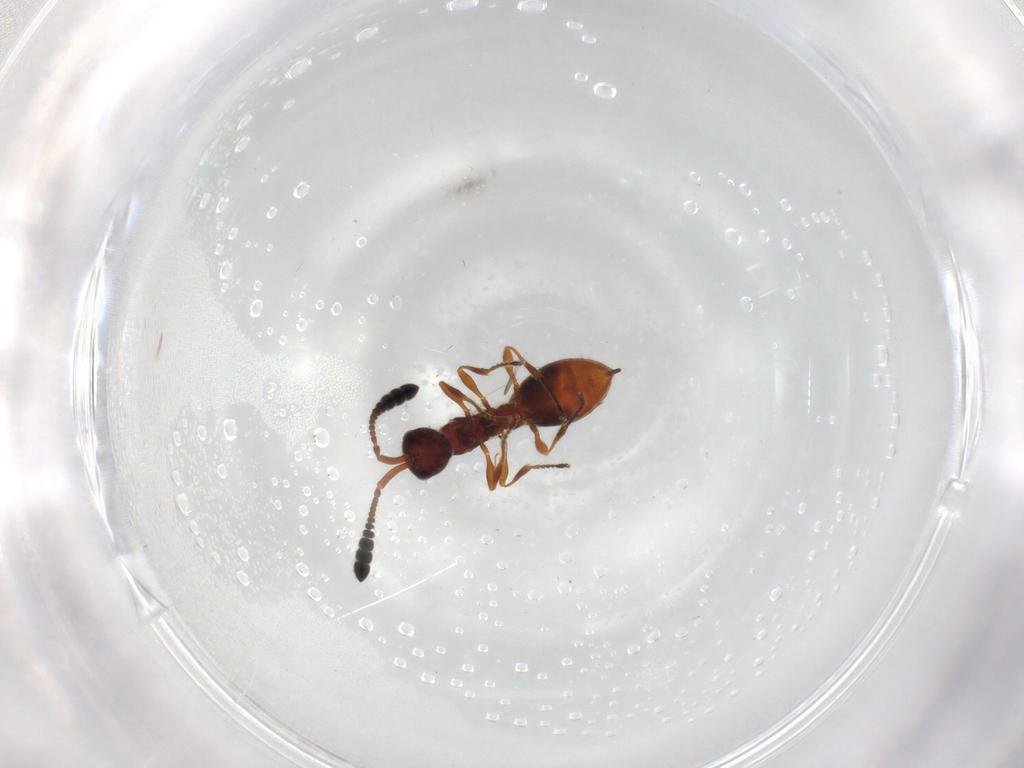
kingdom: Animalia
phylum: Arthropoda
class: Insecta
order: Hymenoptera
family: Diapriidae
